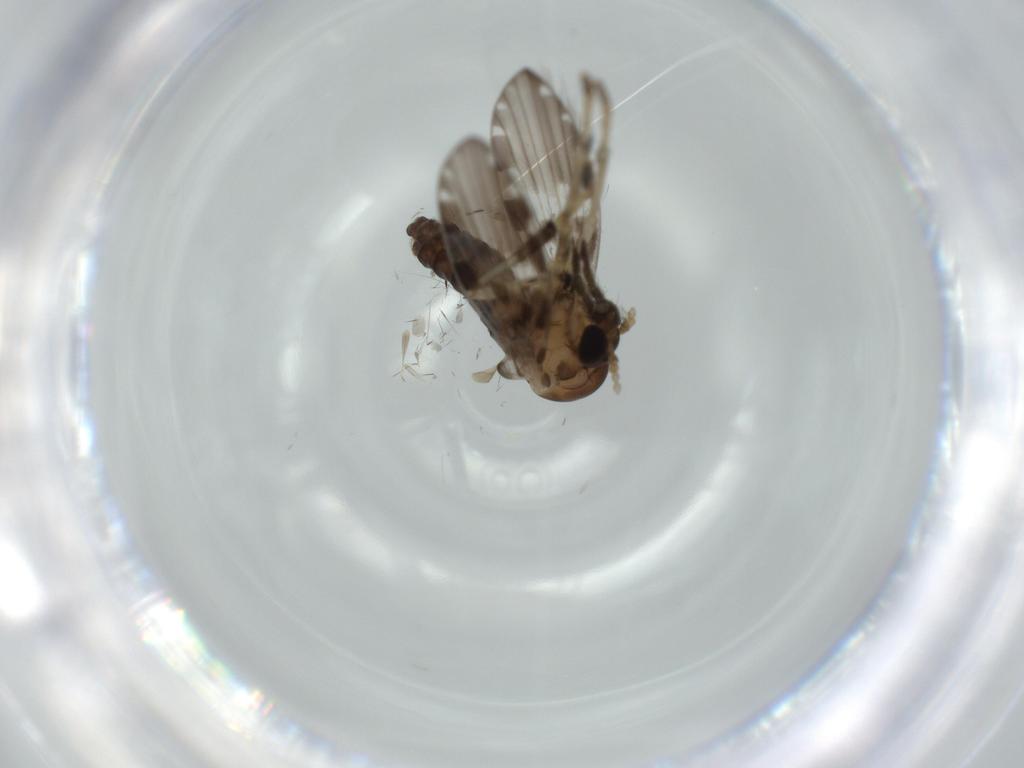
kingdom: Animalia
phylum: Arthropoda
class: Insecta
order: Diptera
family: Psychodidae
